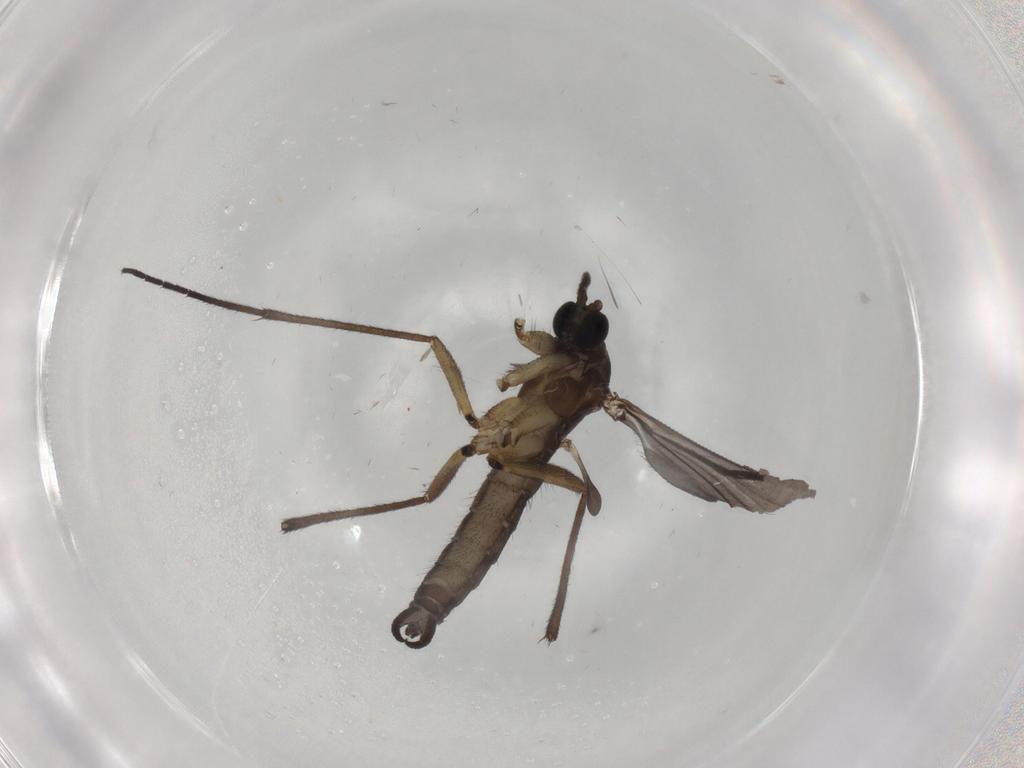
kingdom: Animalia
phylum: Arthropoda
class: Insecta
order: Diptera
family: Sciaridae
